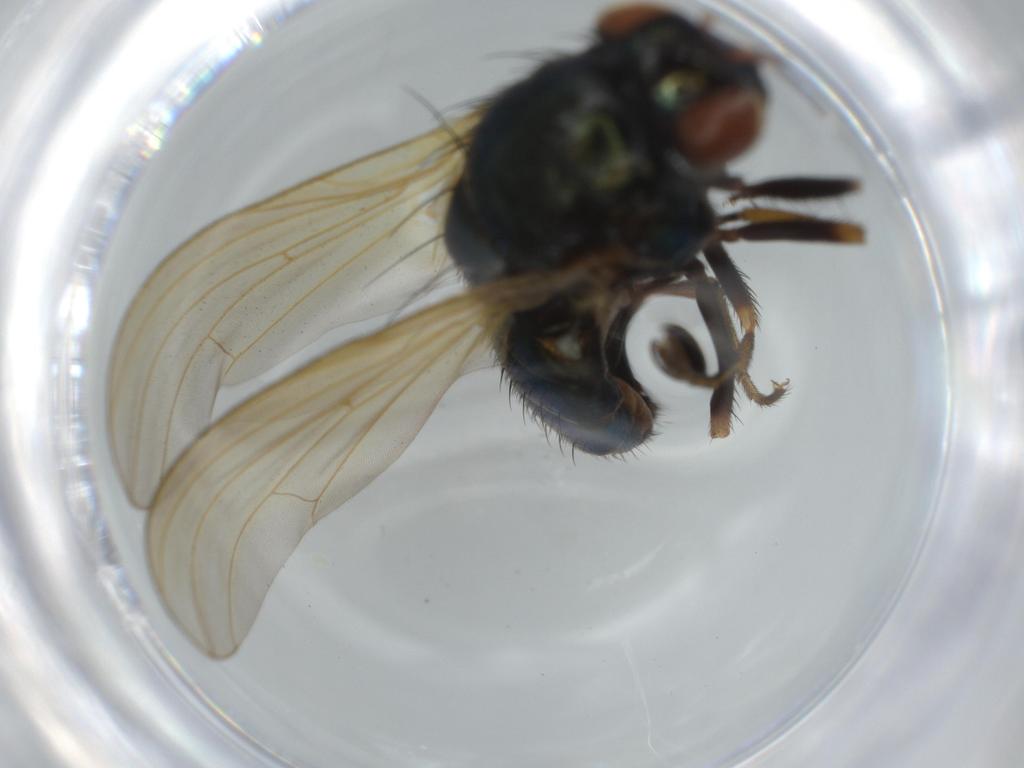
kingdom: Animalia
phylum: Arthropoda
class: Insecta
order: Diptera
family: Lauxaniidae
